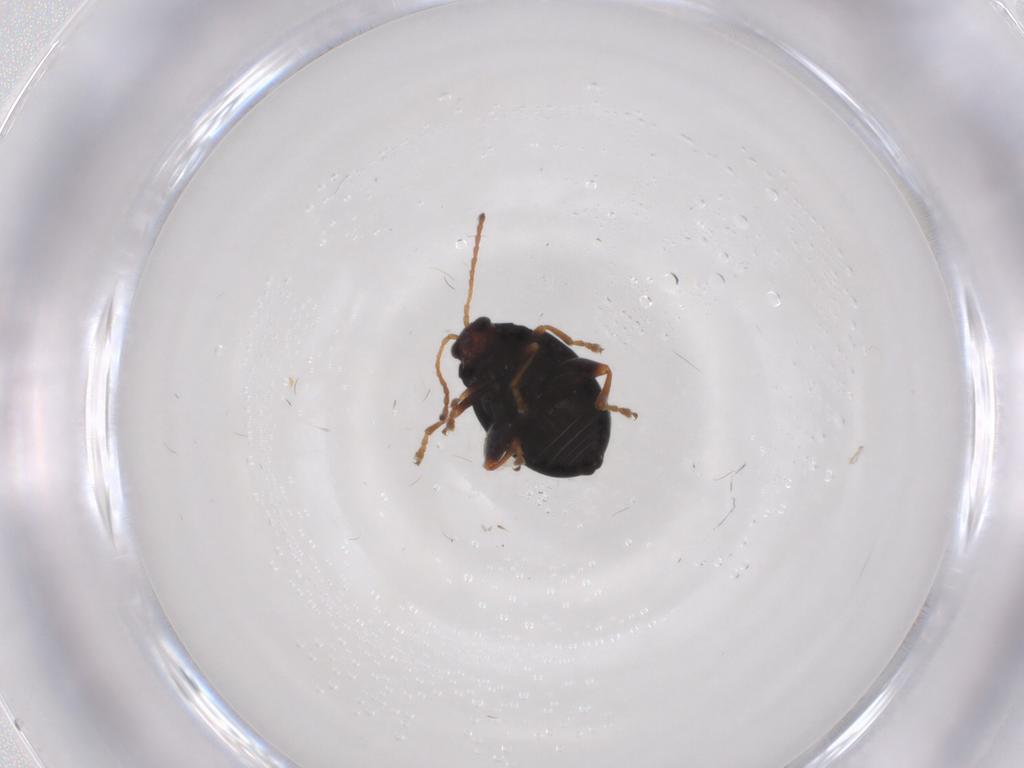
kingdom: Animalia
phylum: Arthropoda
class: Insecta
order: Coleoptera
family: Chrysomelidae
